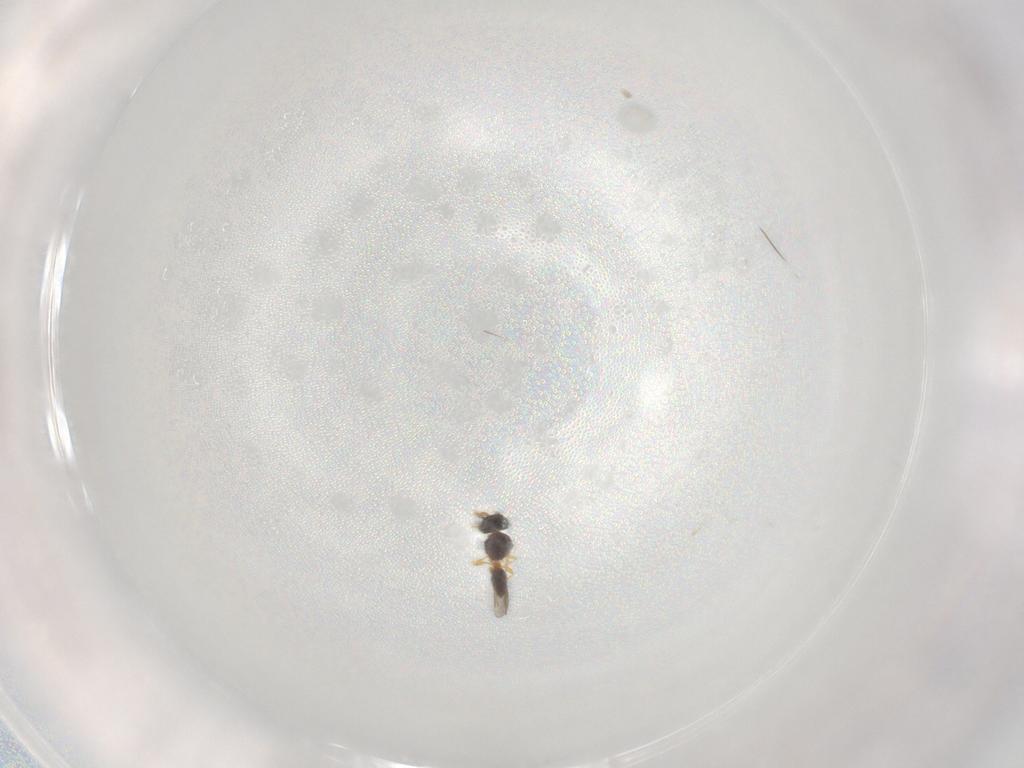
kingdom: Animalia
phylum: Arthropoda
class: Insecta
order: Hymenoptera
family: Platygastridae
